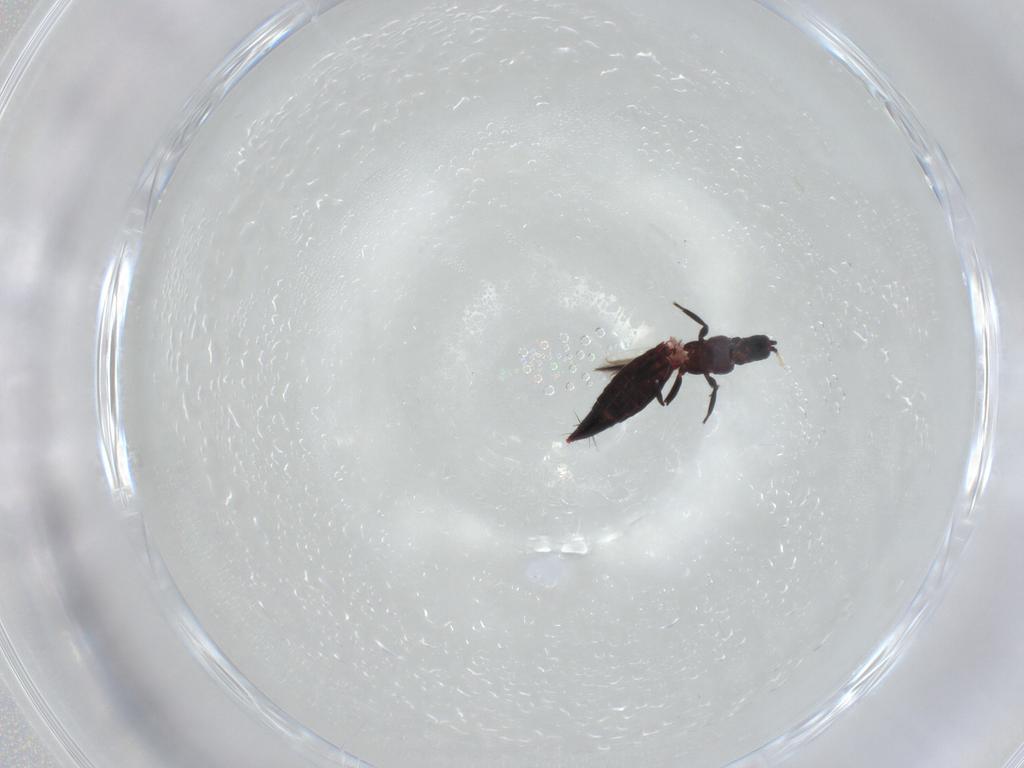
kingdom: Animalia
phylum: Arthropoda
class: Insecta
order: Thysanoptera
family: Thripidae
